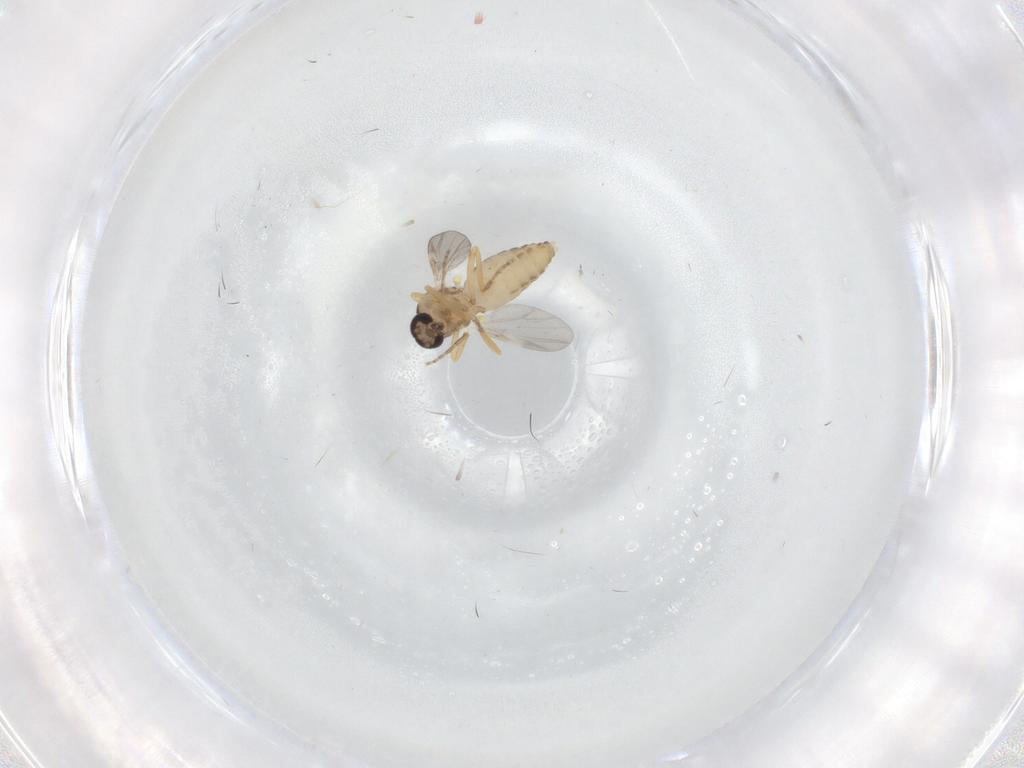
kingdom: Animalia
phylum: Arthropoda
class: Insecta
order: Diptera
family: Ceratopogonidae
